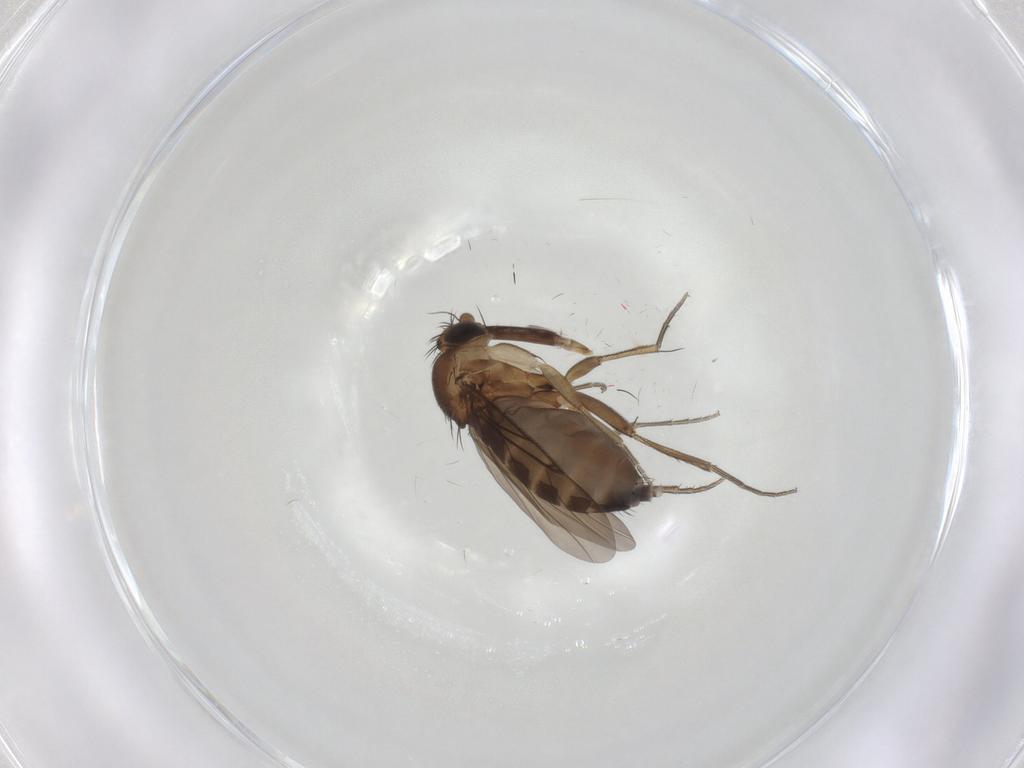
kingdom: Animalia
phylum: Arthropoda
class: Insecta
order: Diptera
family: Phoridae
